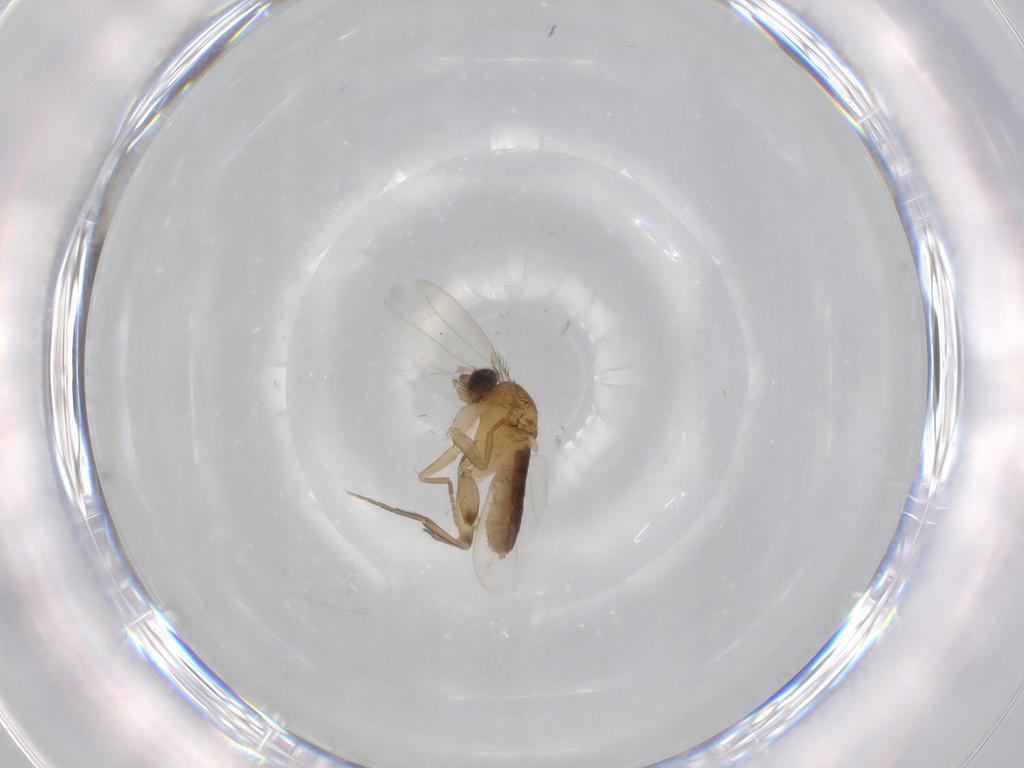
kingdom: Animalia
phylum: Arthropoda
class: Insecta
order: Diptera
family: Phoridae
